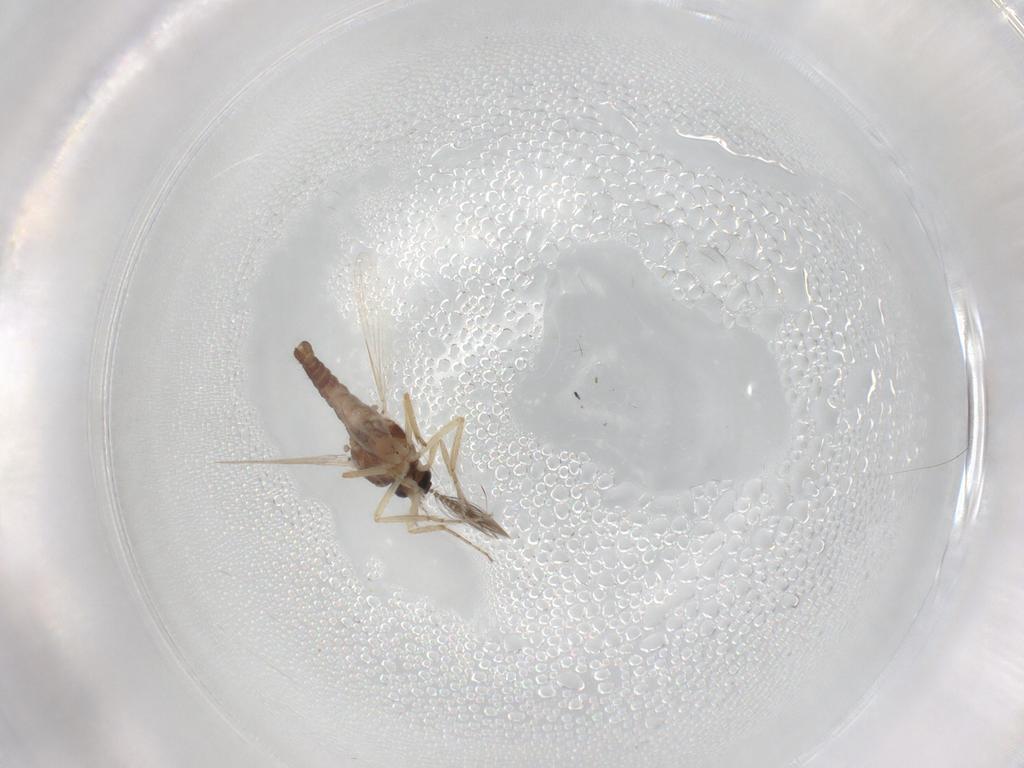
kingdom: Animalia
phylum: Arthropoda
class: Insecta
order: Diptera
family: Ceratopogonidae
